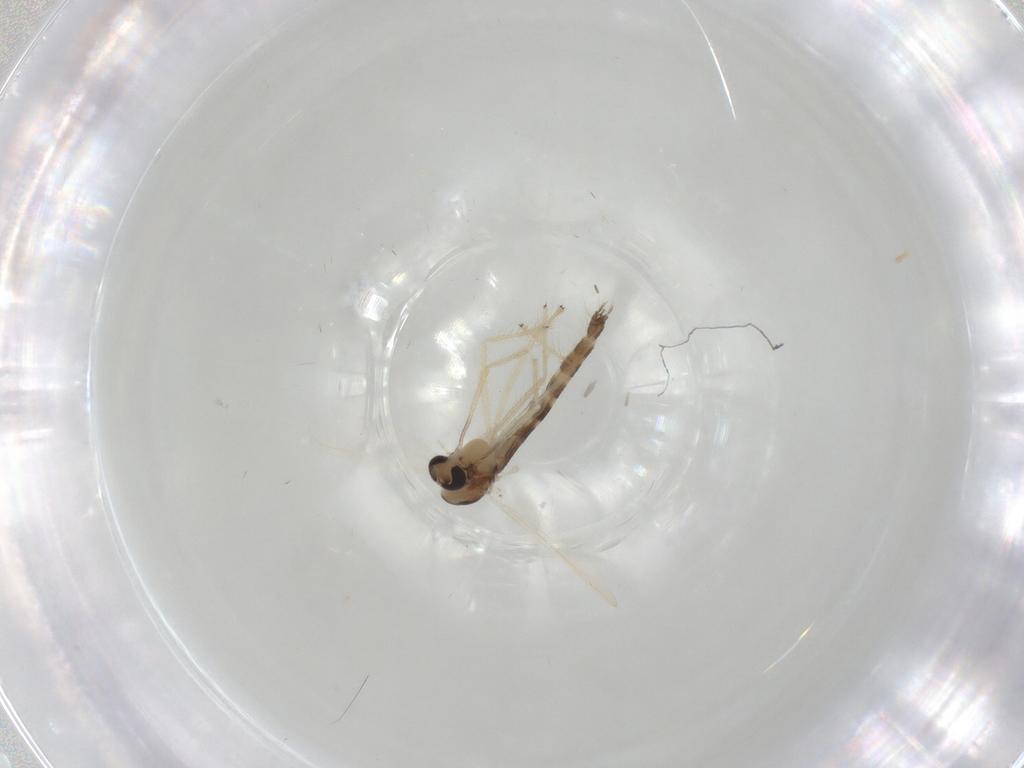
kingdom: Animalia
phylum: Arthropoda
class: Insecta
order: Diptera
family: Chironomidae
